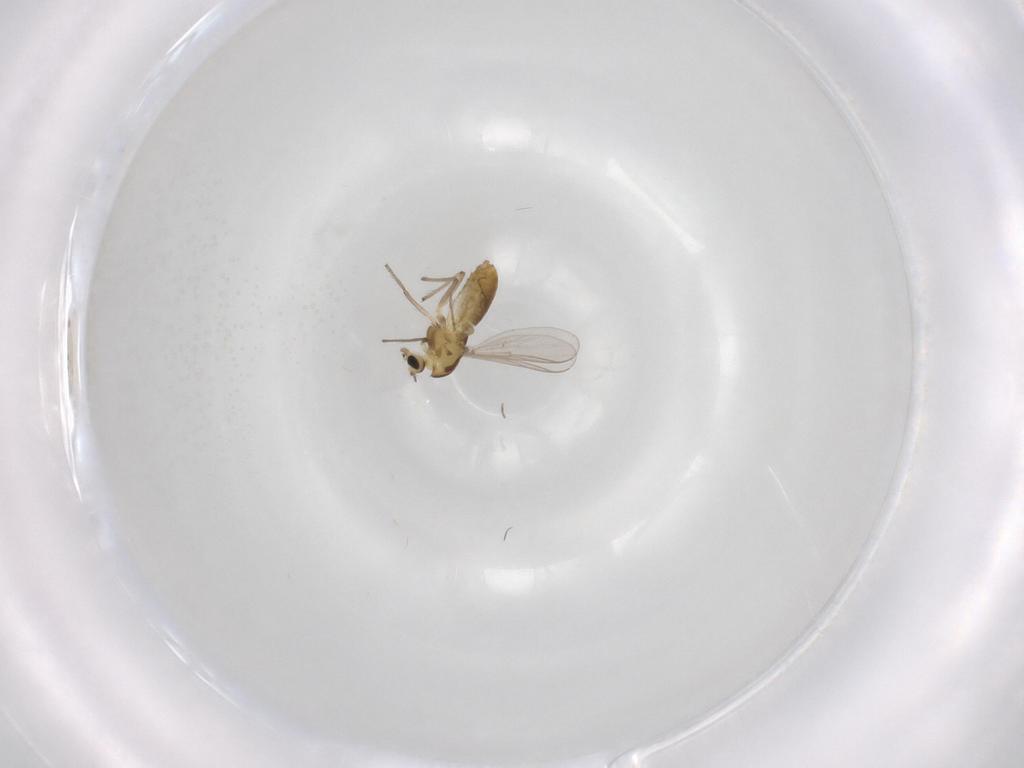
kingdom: Animalia
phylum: Arthropoda
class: Insecta
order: Diptera
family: Chironomidae
